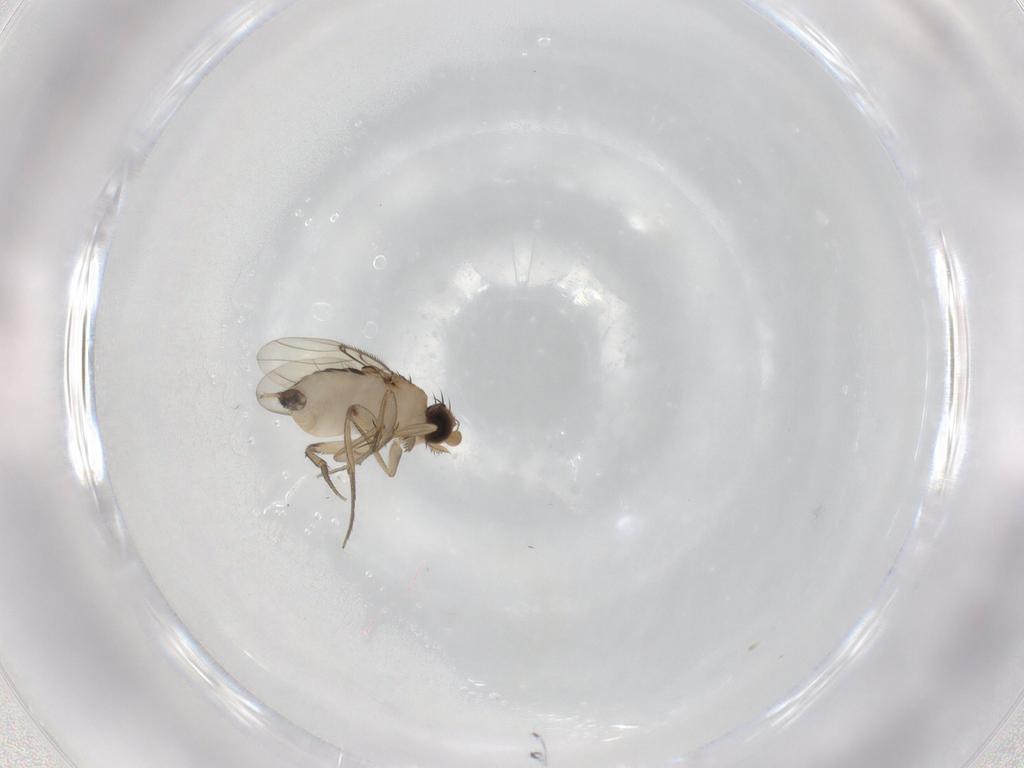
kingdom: Animalia
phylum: Arthropoda
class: Insecta
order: Diptera
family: Phoridae
